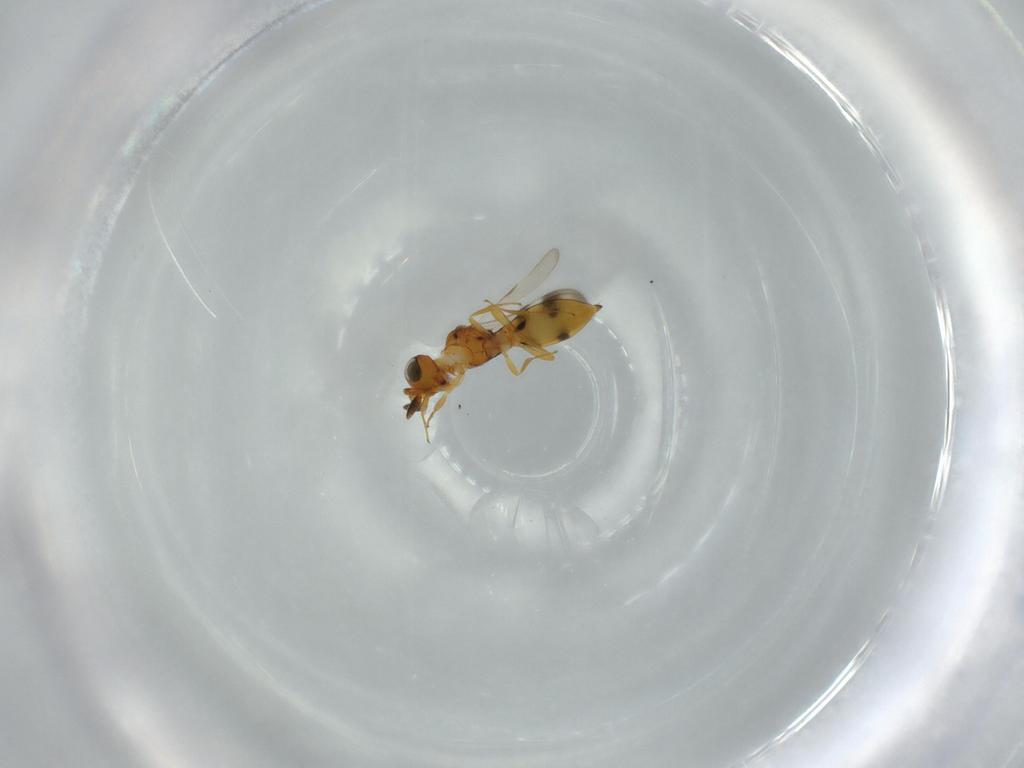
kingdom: Animalia
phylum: Arthropoda
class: Insecta
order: Hymenoptera
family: Scelionidae
